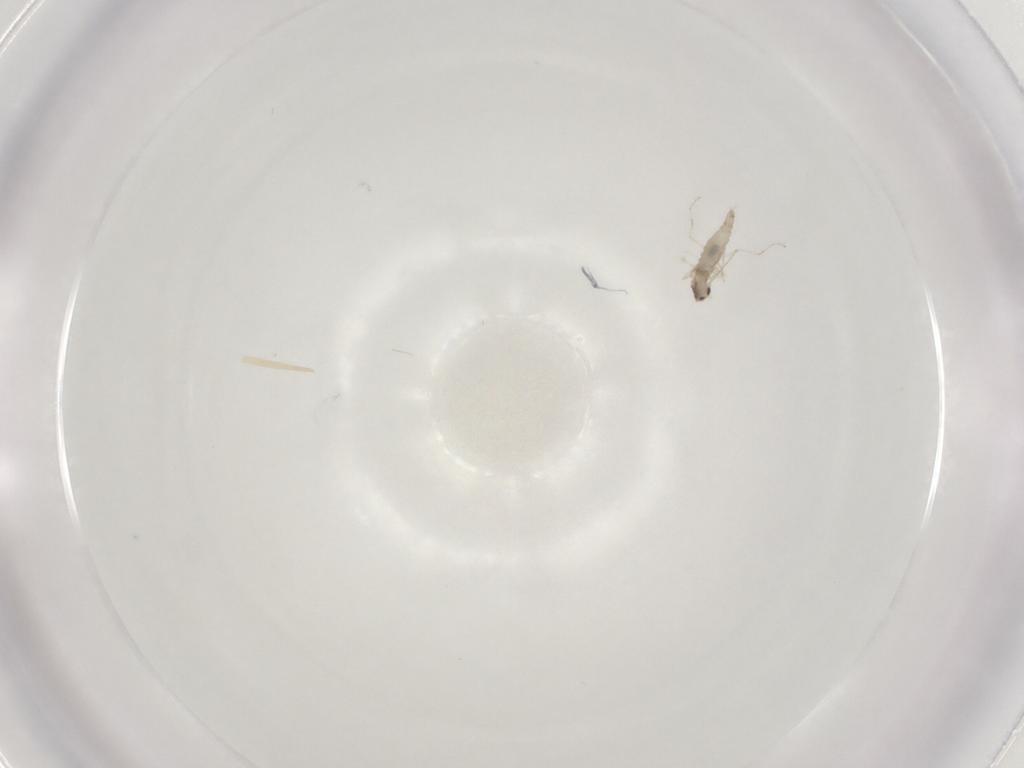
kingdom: Animalia
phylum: Arthropoda
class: Insecta
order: Diptera
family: Cecidomyiidae
